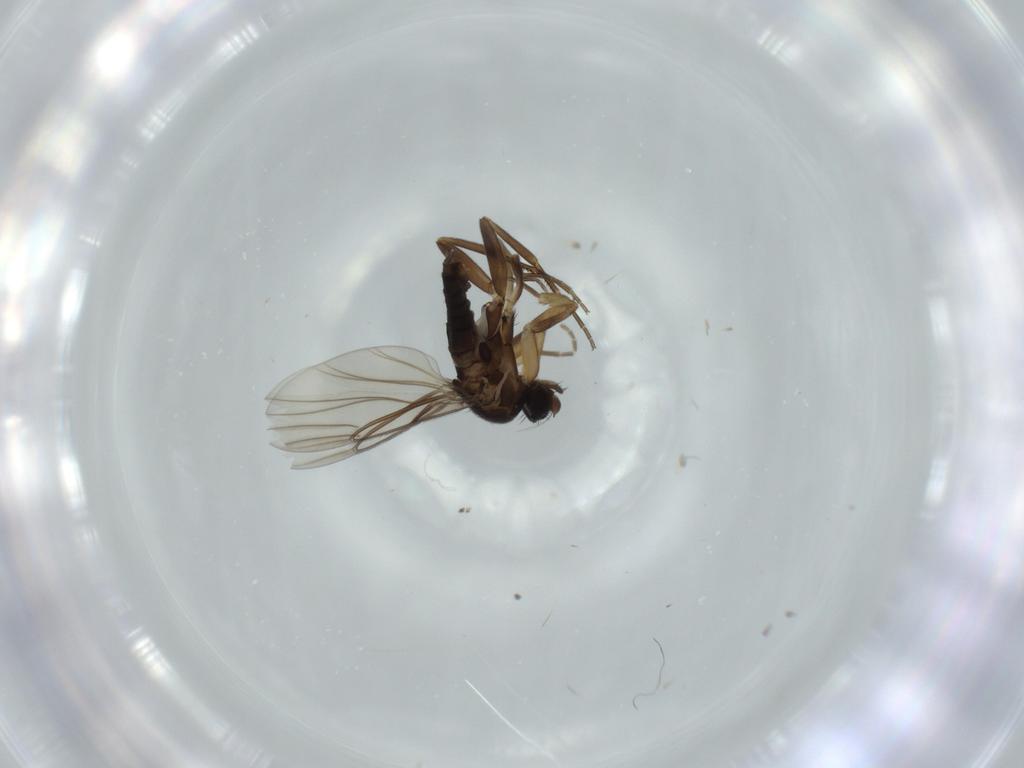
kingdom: Animalia
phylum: Arthropoda
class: Insecta
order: Diptera
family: Phoridae
